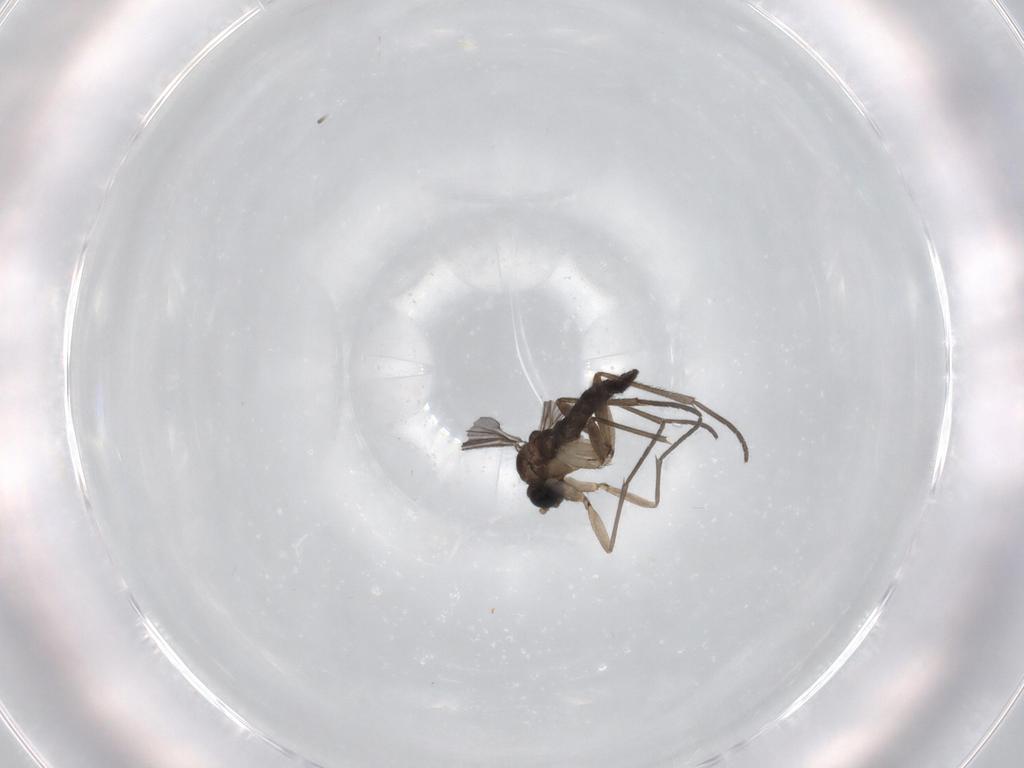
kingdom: Animalia
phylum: Arthropoda
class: Insecta
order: Diptera
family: Sciaridae
